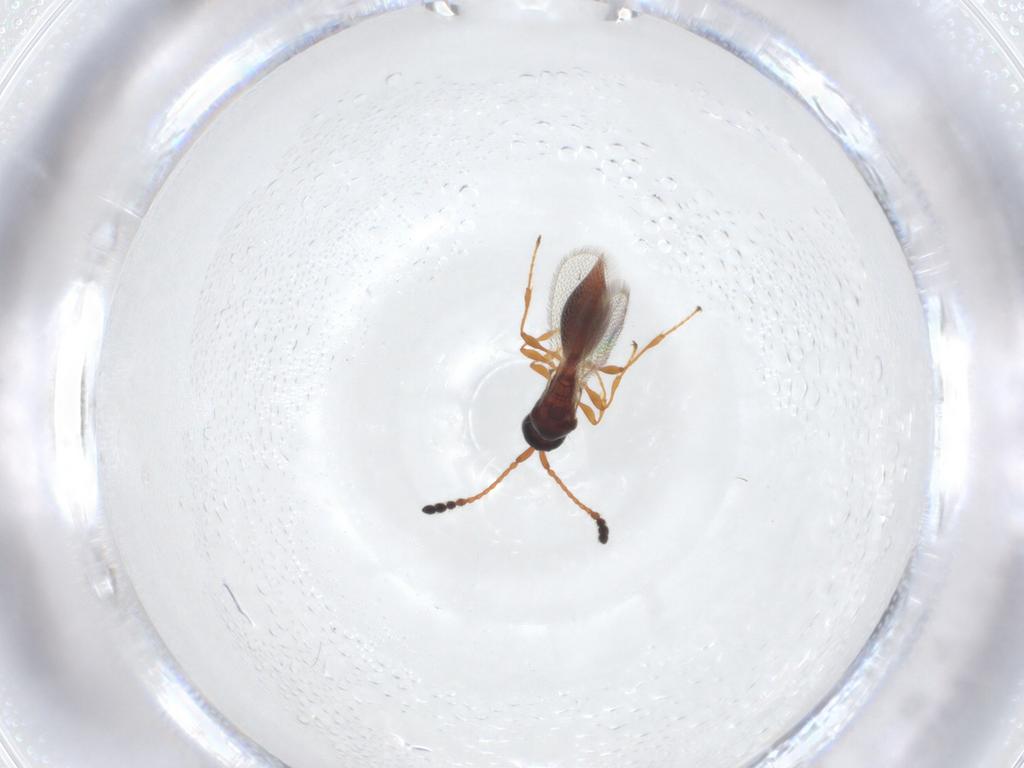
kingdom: Animalia
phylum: Arthropoda
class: Insecta
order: Hymenoptera
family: Diapriidae
